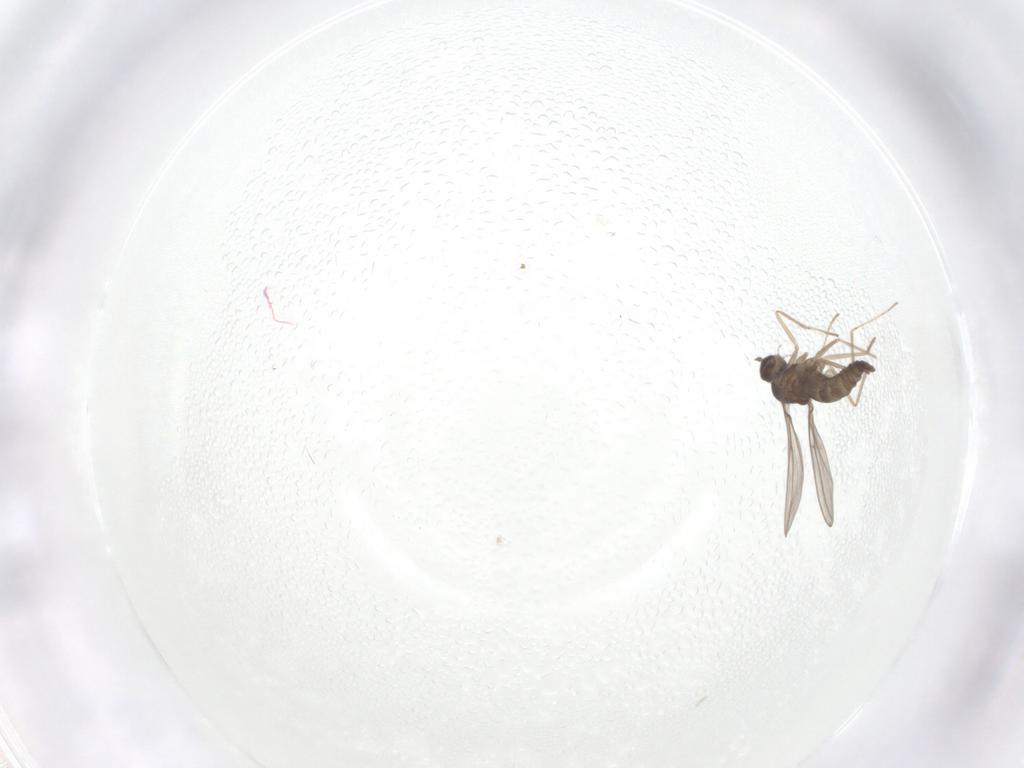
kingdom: Animalia
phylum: Arthropoda
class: Insecta
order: Diptera
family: Cecidomyiidae
